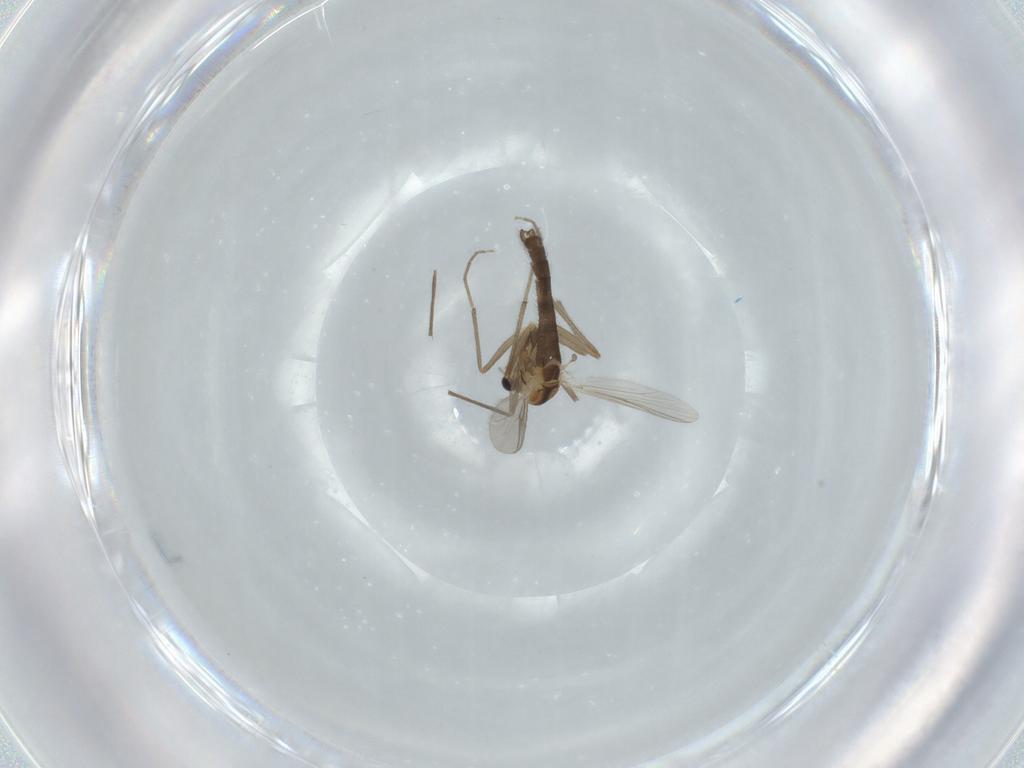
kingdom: Animalia
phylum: Arthropoda
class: Insecta
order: Diptera
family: Chironomidae
